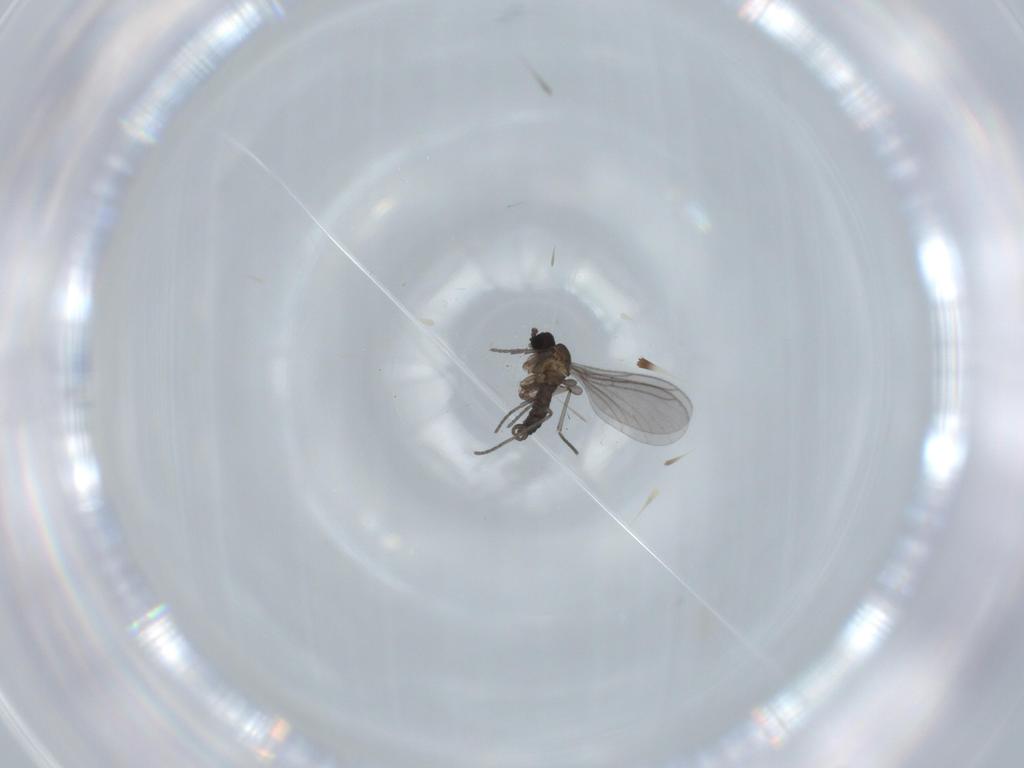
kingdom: Animalia
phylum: Arthropoda
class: Insecta
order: Diptera
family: Cecidomyiidae
